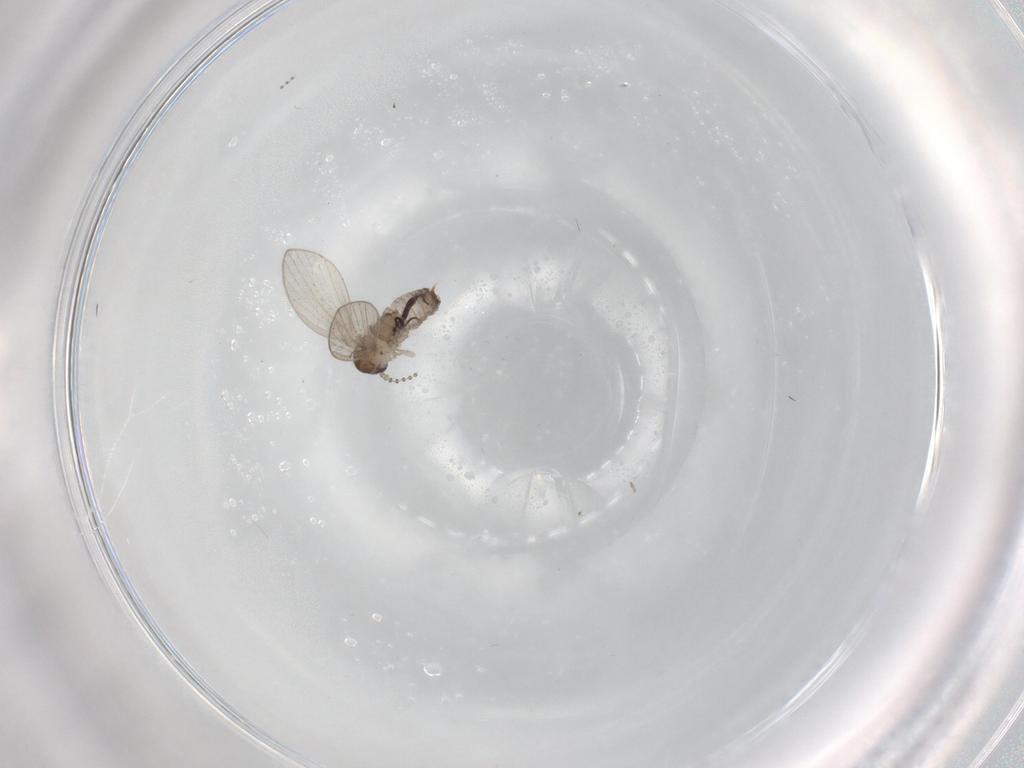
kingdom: Animalia
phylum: Arthropoda
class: Insecta
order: Diptera
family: Psychodidae
